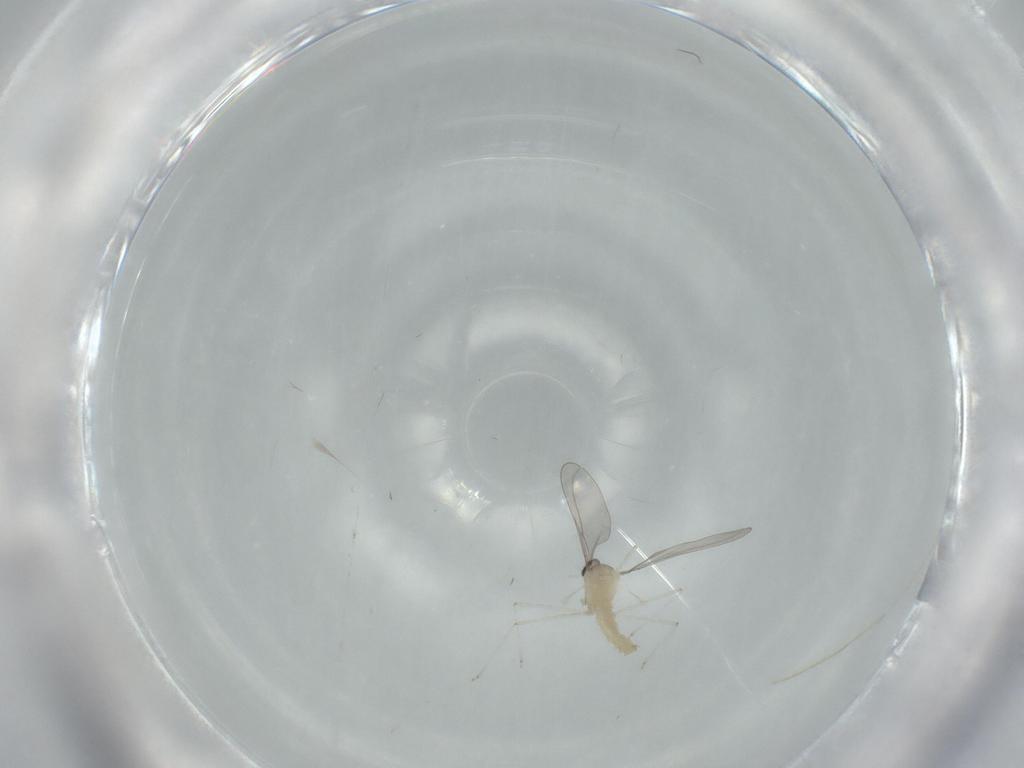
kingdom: Animalia
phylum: Arthropoda
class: Insecta
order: Diptera
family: Cecidomyiidae
